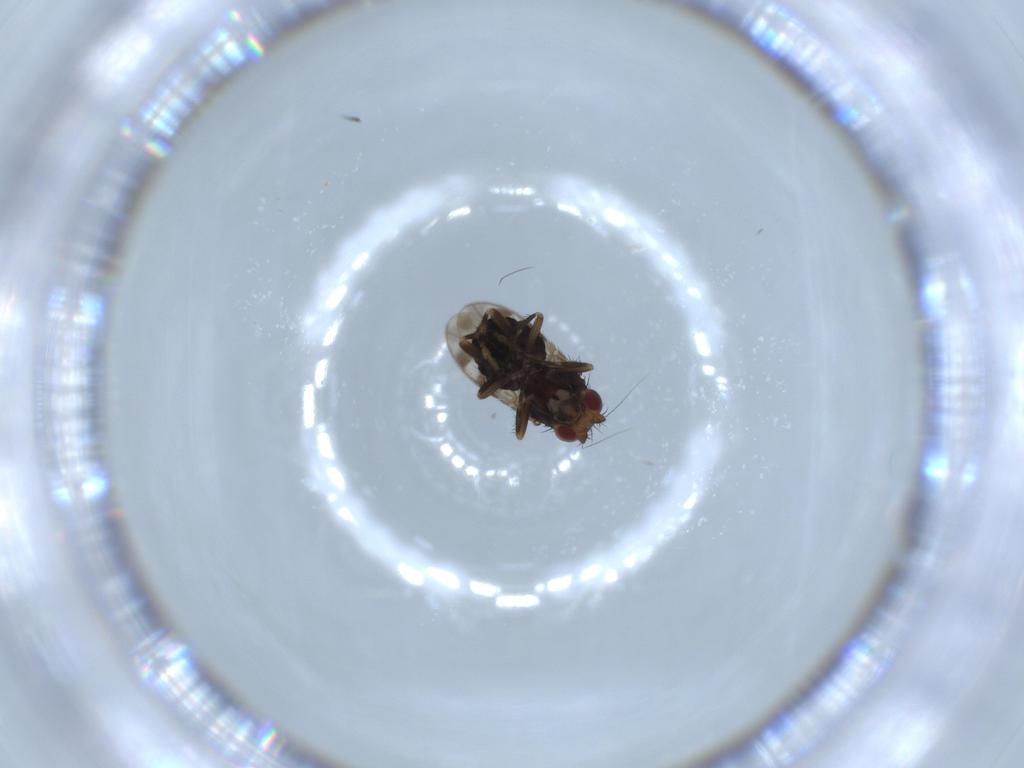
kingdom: Animalia
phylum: Arthropoda
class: Insecta
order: Diptera
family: Sphaeroceridae
